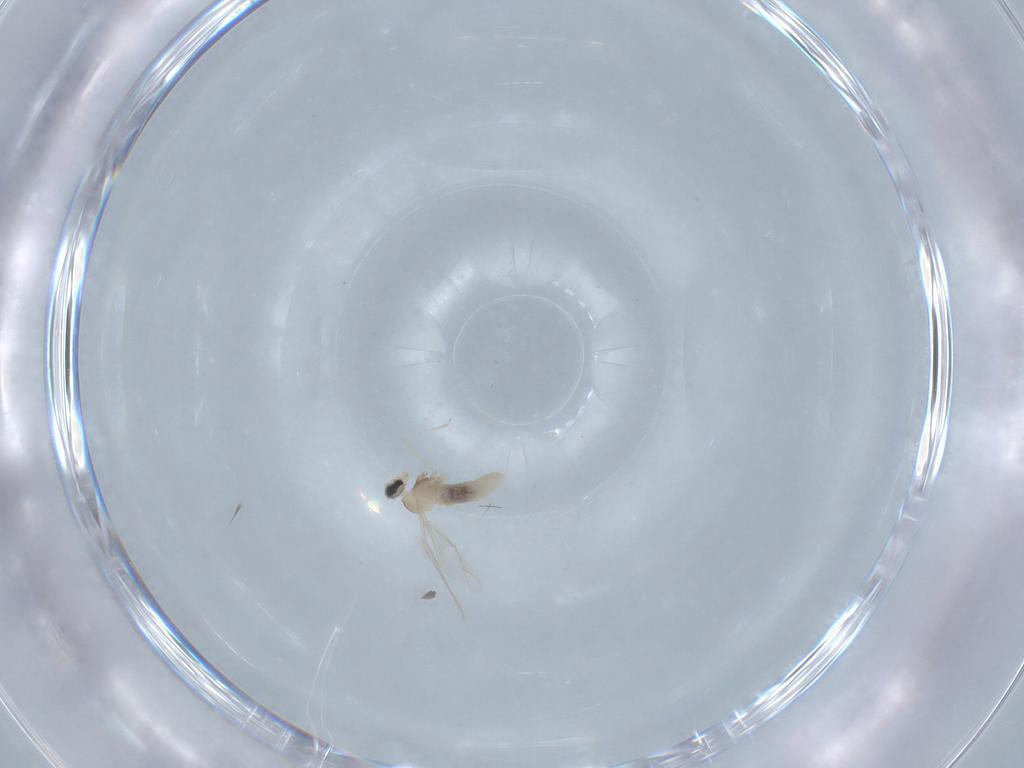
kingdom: Animalia
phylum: Arthropoda
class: Insecta
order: Diptera
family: Cecidomyiidae
